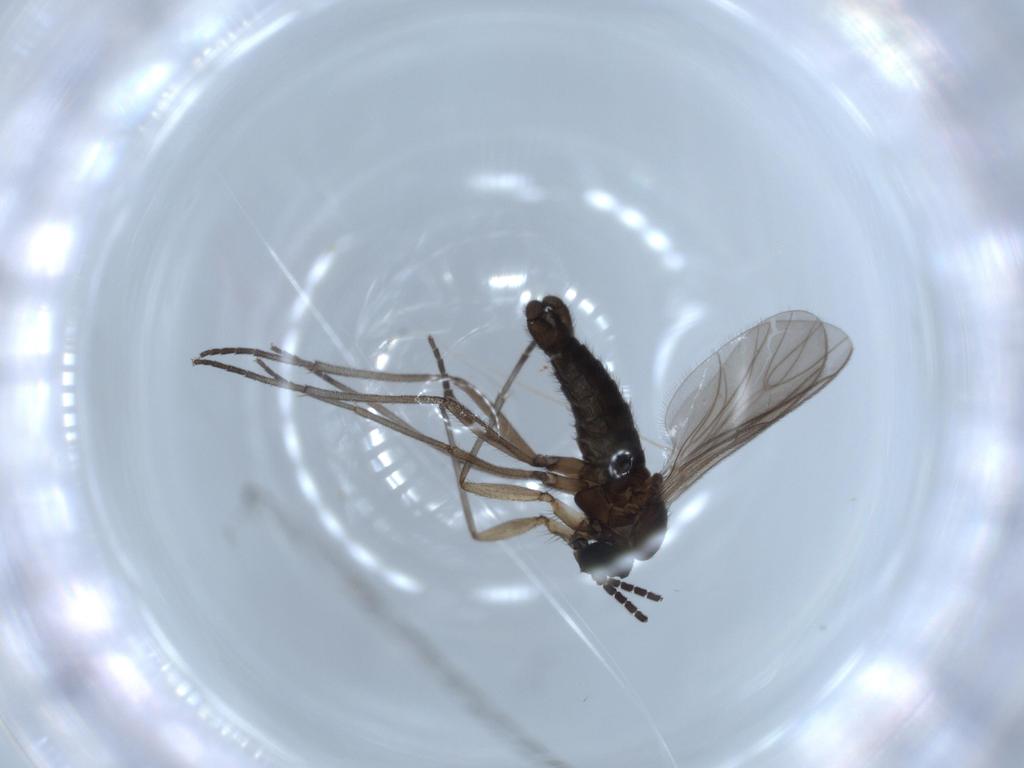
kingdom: Animalia
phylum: Arthropoda
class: Insecta
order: Diptera
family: Dolichopodidae
